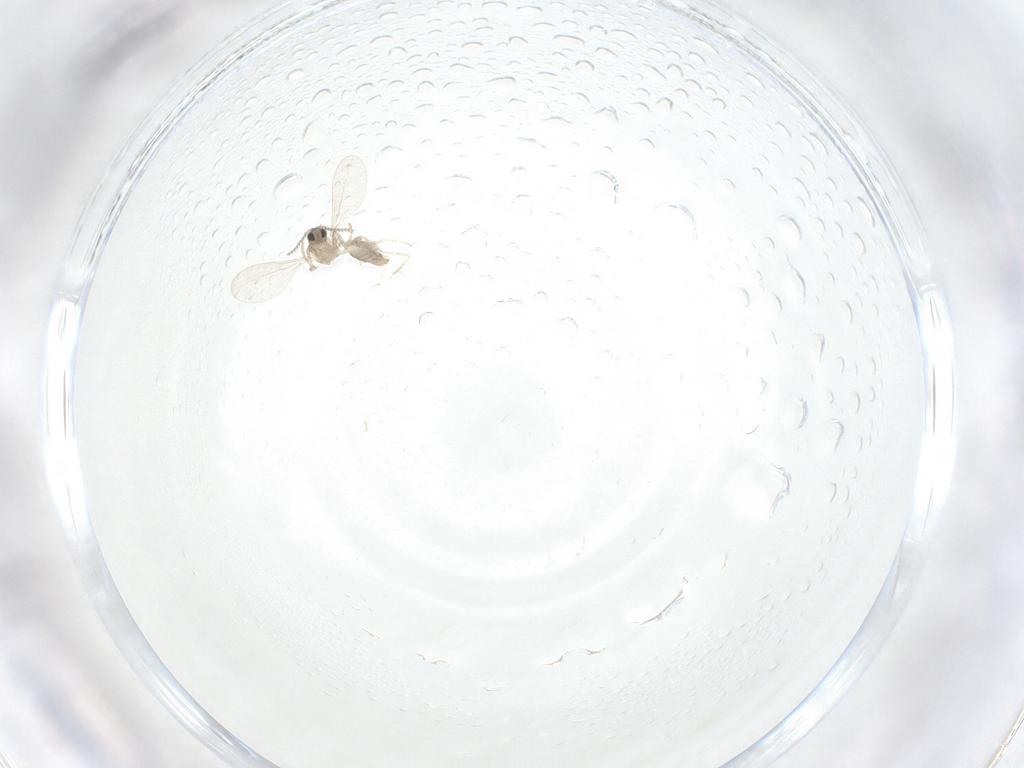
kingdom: Animalia
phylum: Arthropoda
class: Insecta
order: Diptera
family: Cecidomyiidae
